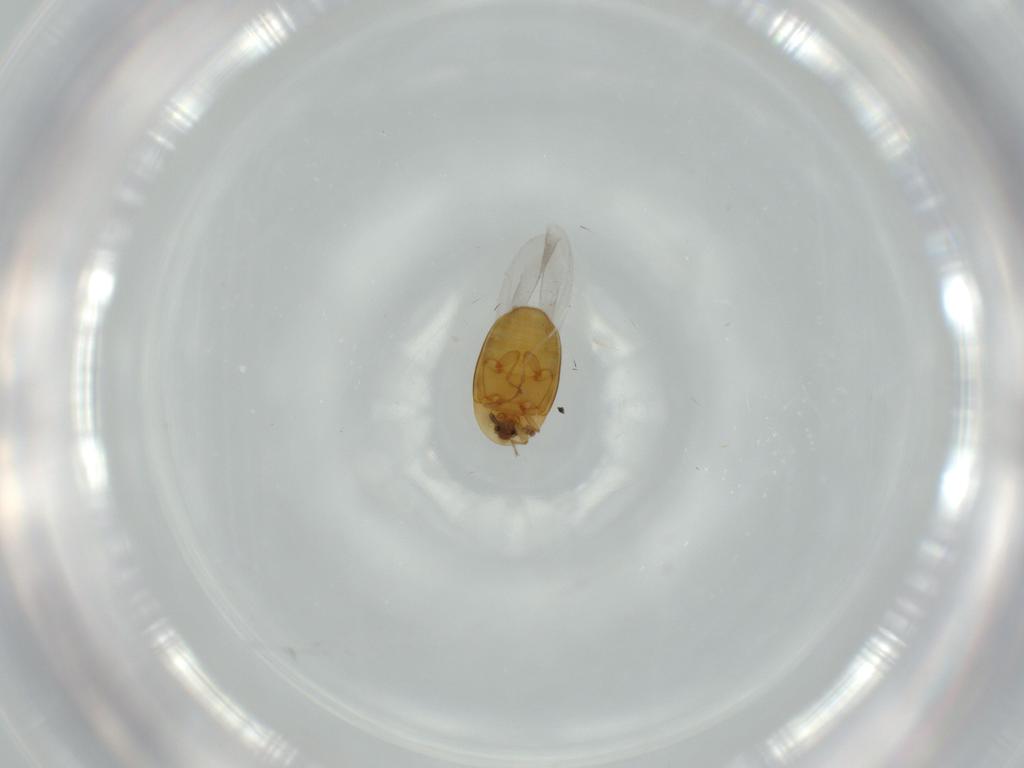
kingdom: Animalia
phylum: Arthropoda
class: Insecta
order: Coleoptera
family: Corylophidae
